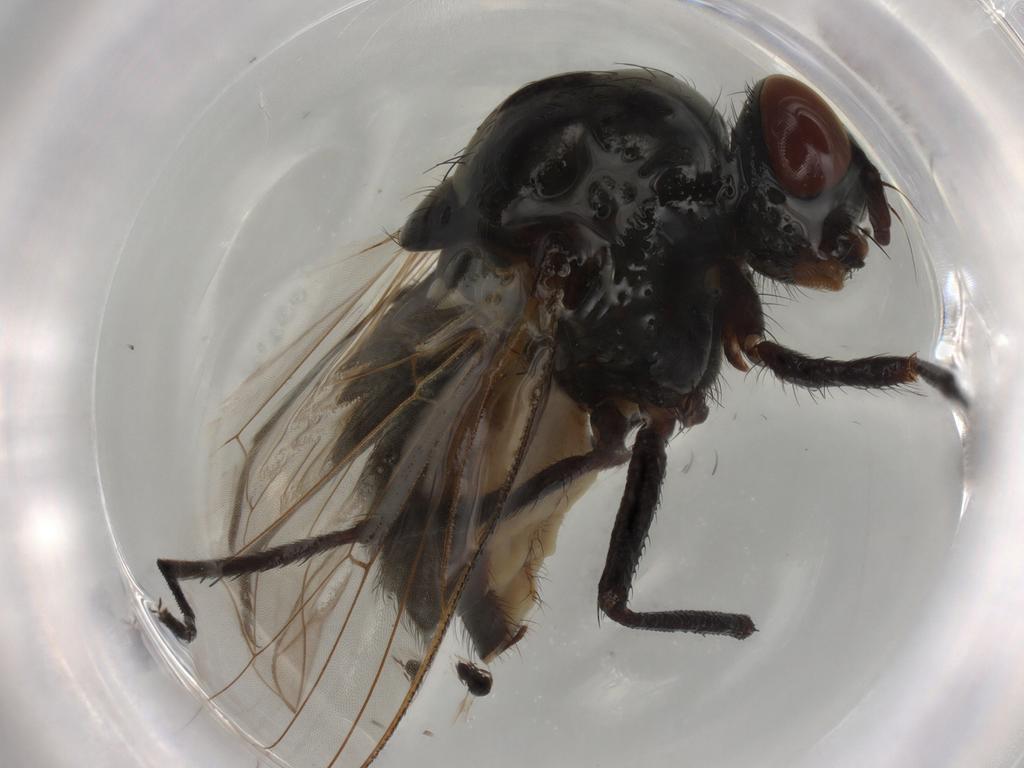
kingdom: Animalia
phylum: Arthropoda
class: Insecta
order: Diptera
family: Anthomyiidae
